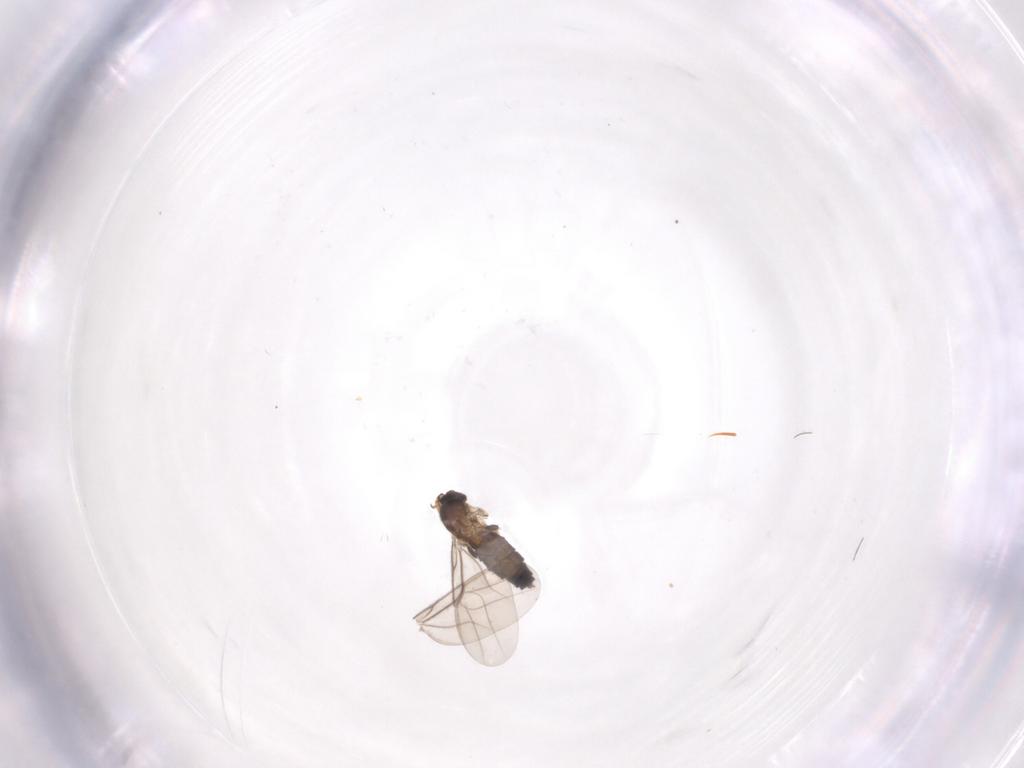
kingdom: Animalia
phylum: Arthropoda
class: Insecta
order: Diptera
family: Phoridae
